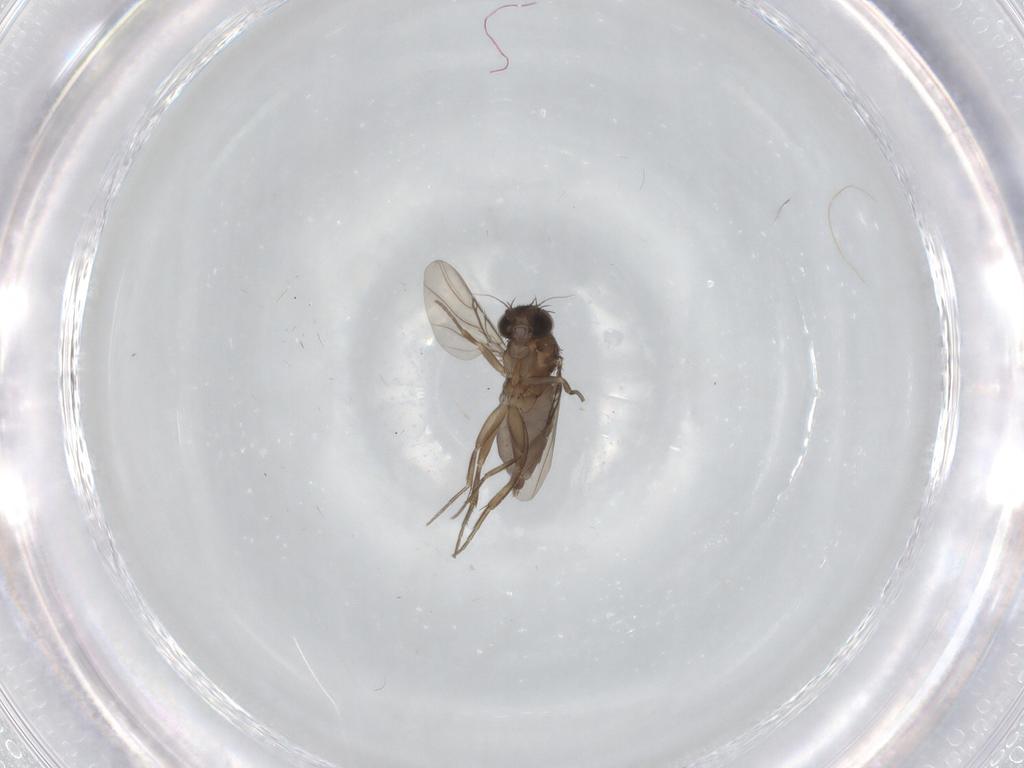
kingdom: Animalia
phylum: Arthropoda
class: Insecta
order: Diptera
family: Phoridae
